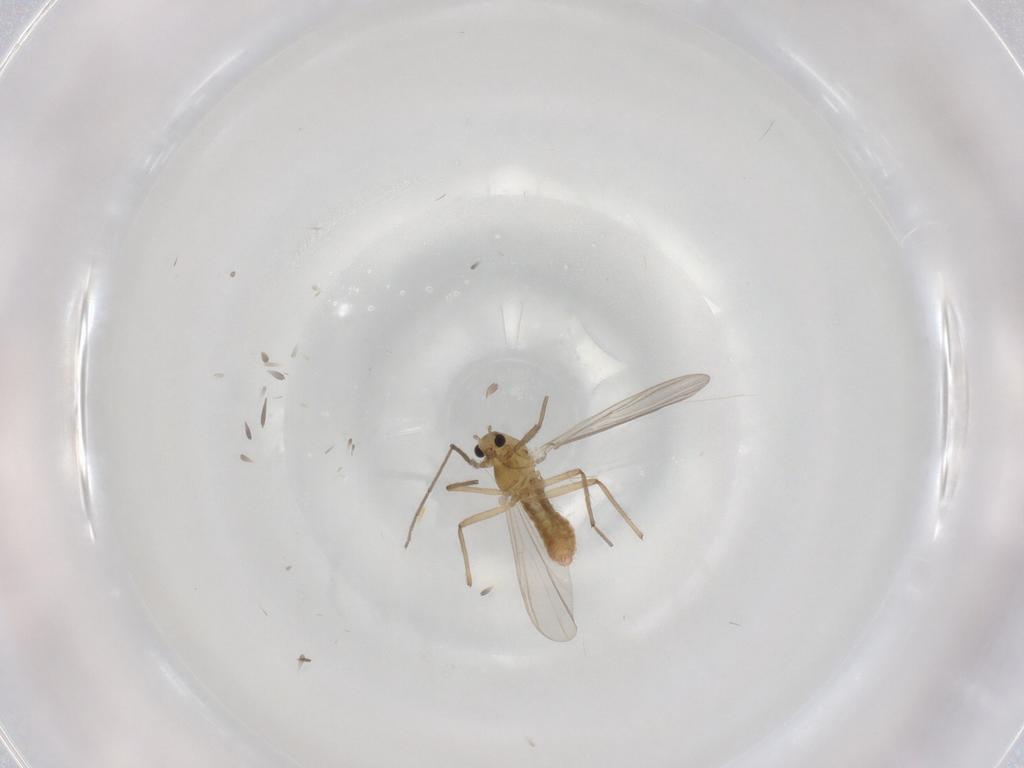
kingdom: Animalia
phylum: Arthropoda
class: Insecta
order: Diptera
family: Chironomidae
